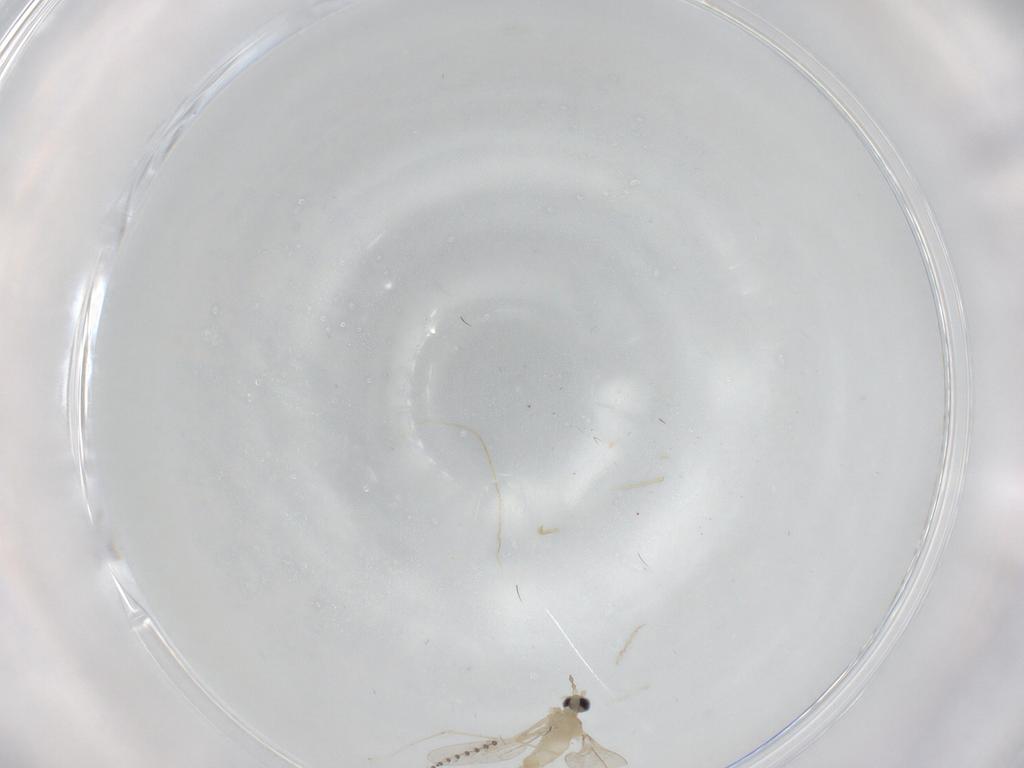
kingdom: Animalia
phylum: Arthropoda
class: Insecta
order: Diptera
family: Cecidomyiidae
